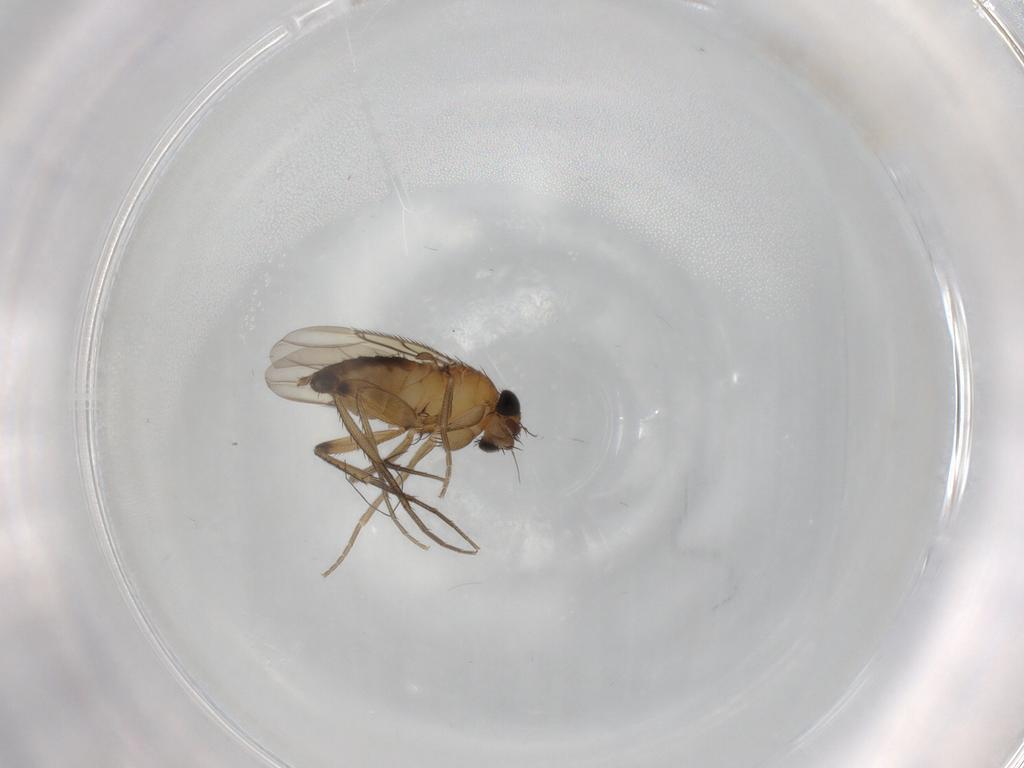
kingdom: Animalia
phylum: Arthropoda
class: Insecta
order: Diptera
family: Phoridae
